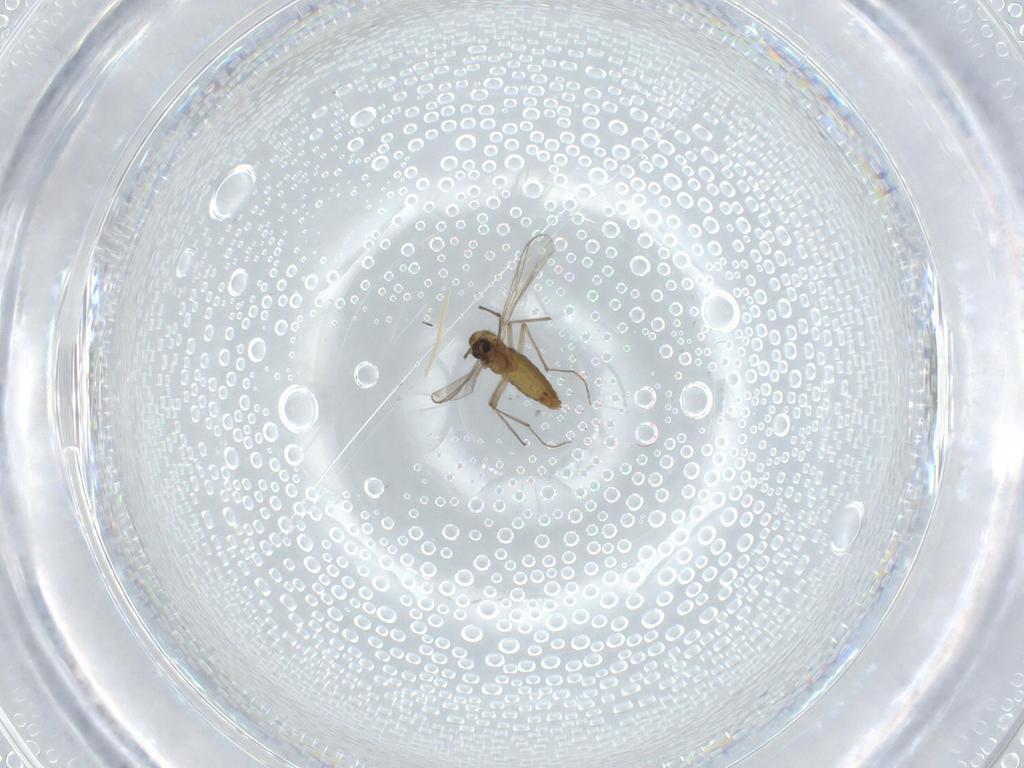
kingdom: Animalia
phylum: Arthropoda
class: Insecta
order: Diptera
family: Chironomidae
